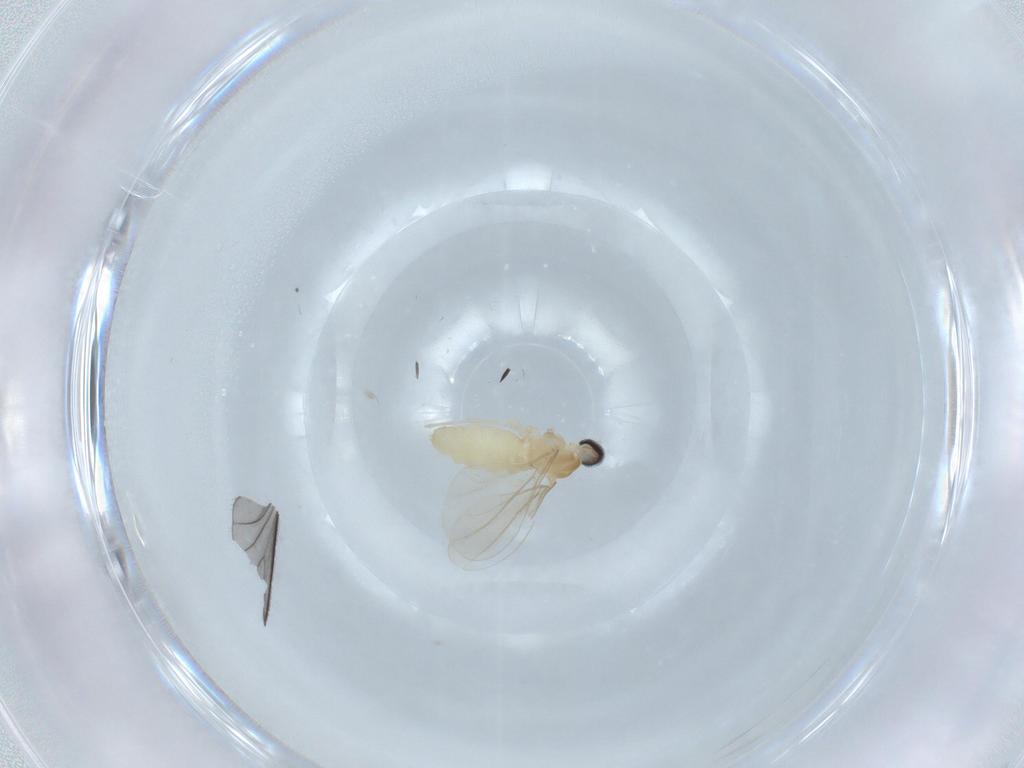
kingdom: Animalia
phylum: Arthropoda
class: Insecta
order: Diptera
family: Cecidomyiidae
